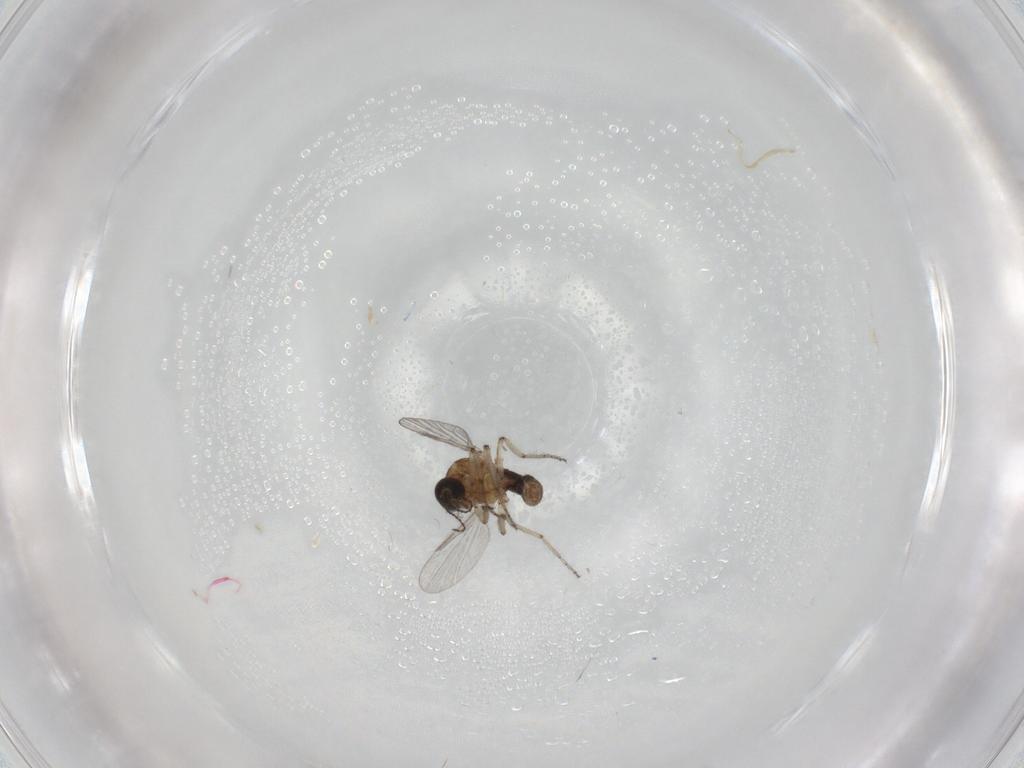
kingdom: Animalia
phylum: Arthropoda
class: Insecta
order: Diptera
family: Ceratopogonidae
